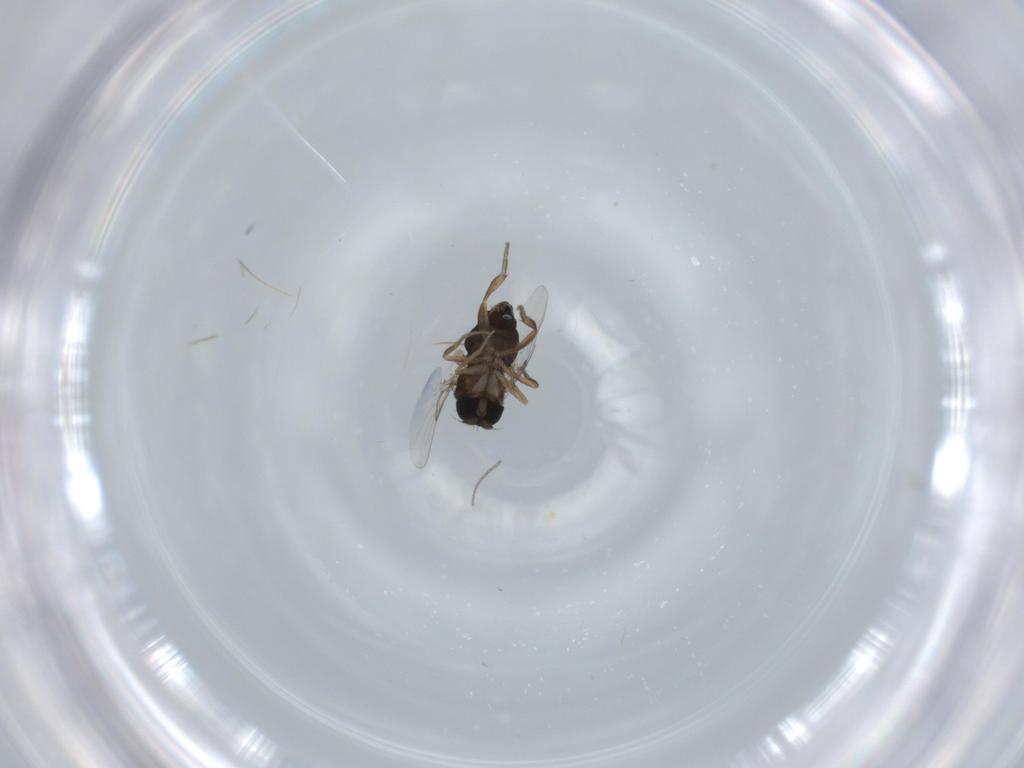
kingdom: Animalia
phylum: Arthropoda
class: Insecta
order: Diptera
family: Phoridae
